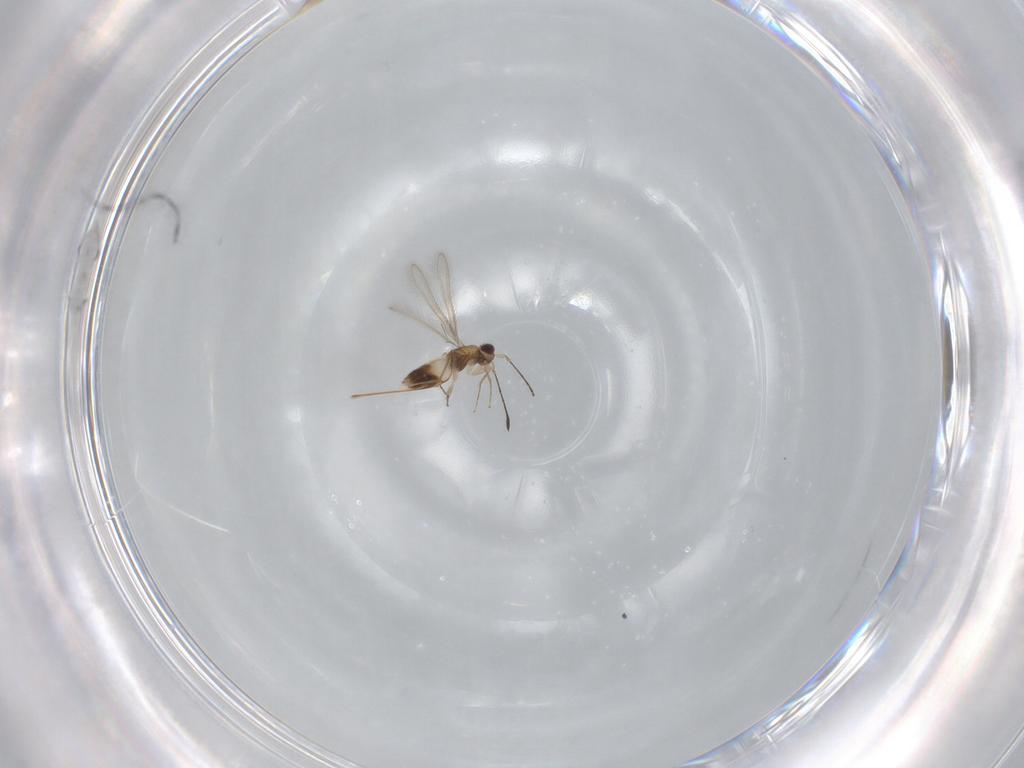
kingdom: Animalia
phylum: Arthropoda
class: Insecta
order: Hymenoptera
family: Mymaridae
